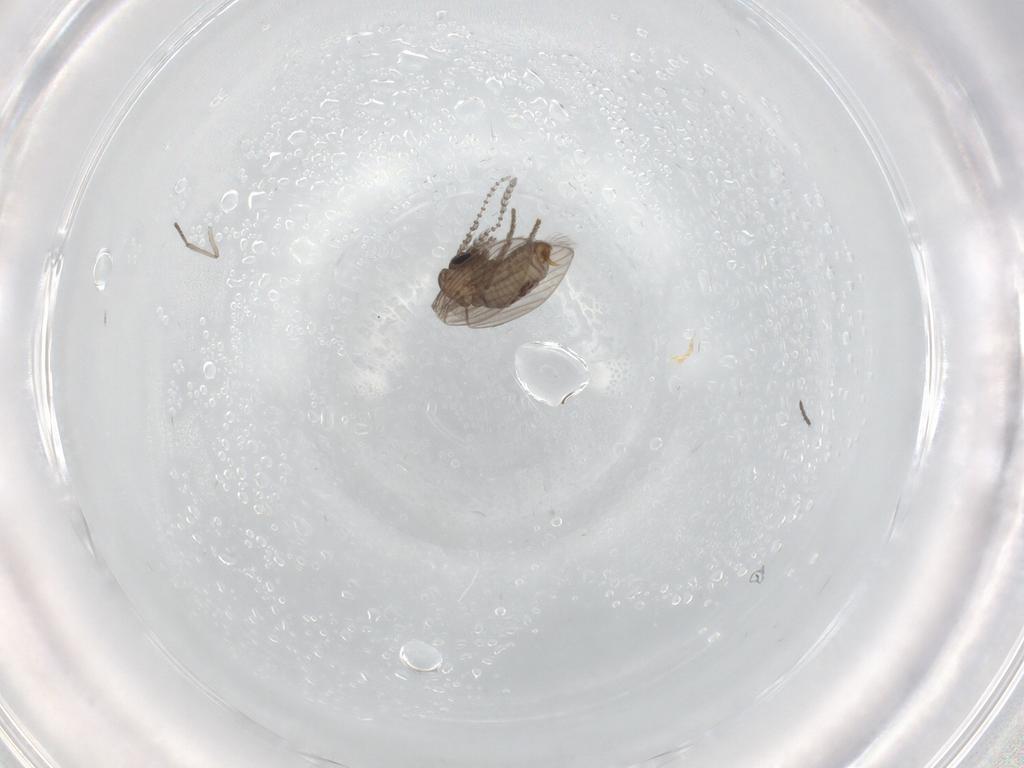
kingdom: Animalia
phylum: Arthropoda
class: Insecta
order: Diptera
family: Psychodidae
